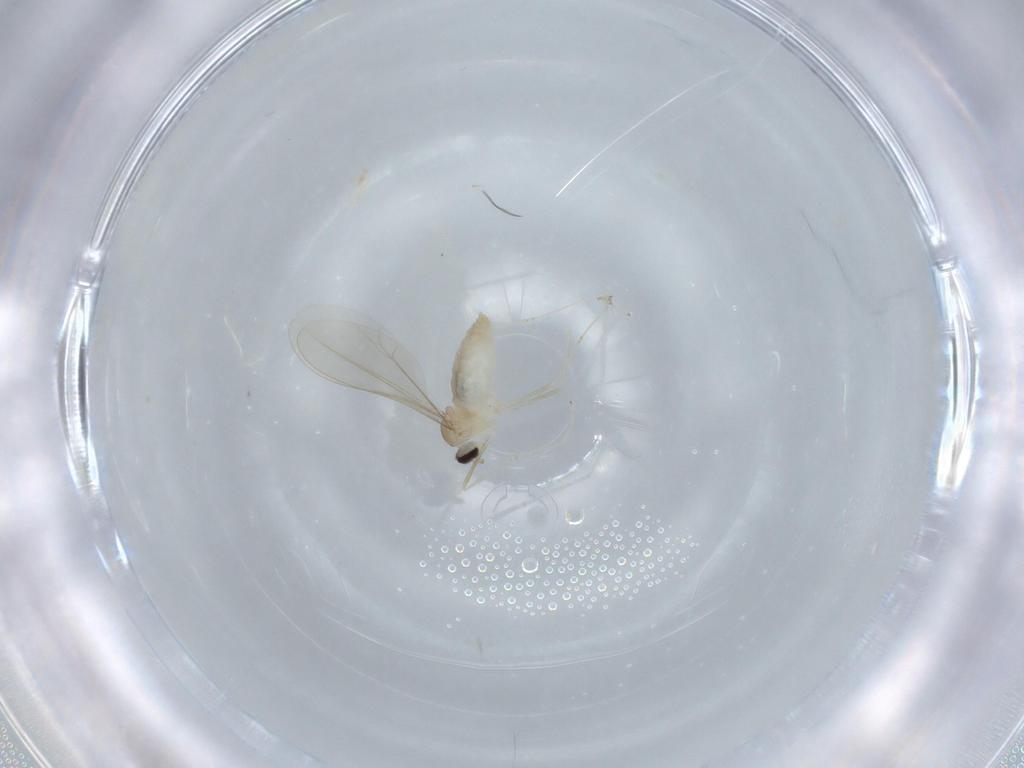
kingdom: Animalia
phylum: Arthropoda
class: Insecta
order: Diptera
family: Cecidomyiidae
